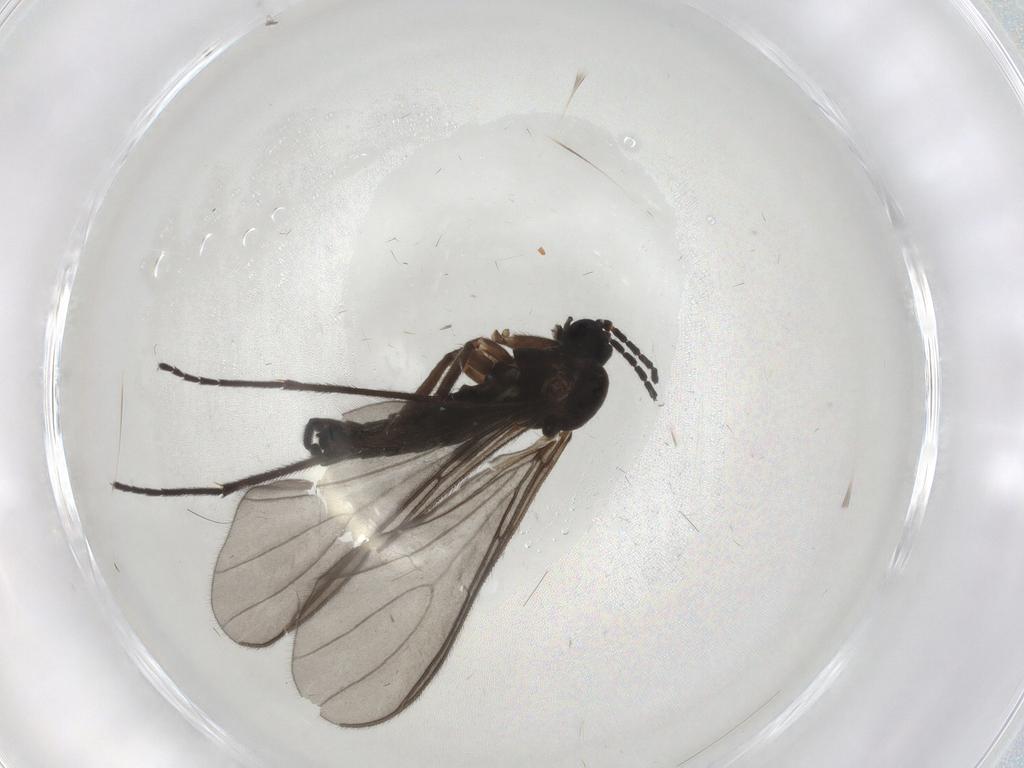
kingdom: Animalia
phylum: Arthropoda
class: Insecta
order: Diptera
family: Sciaridae
